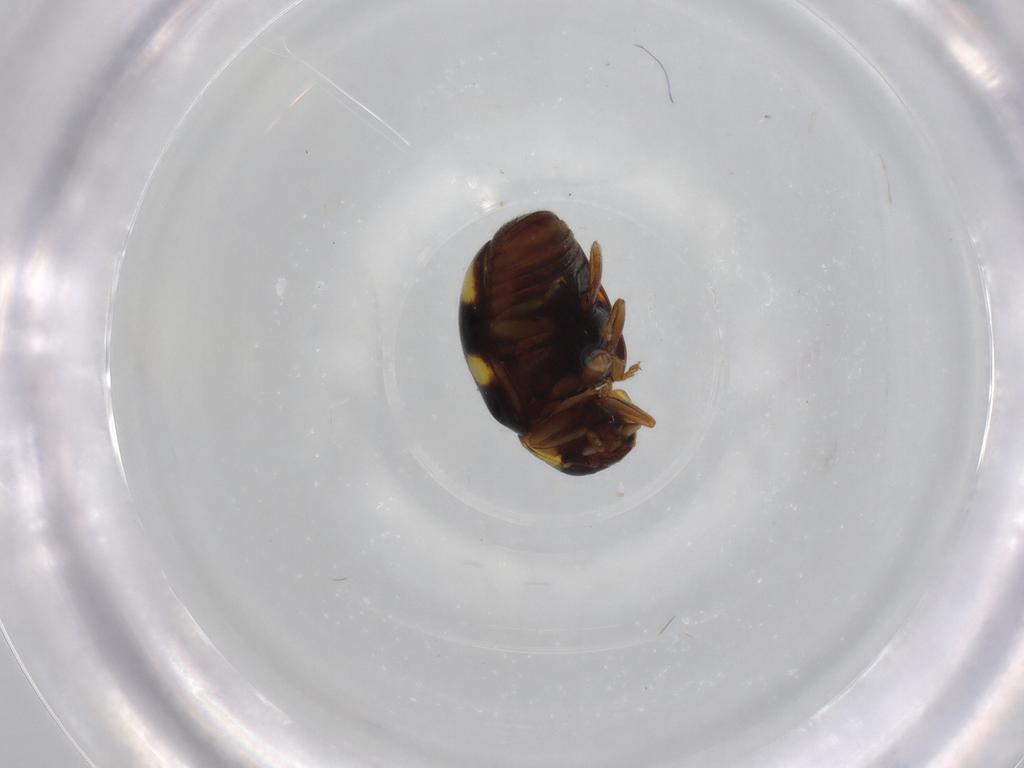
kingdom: Animalia
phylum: Arthropoda
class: Insecta
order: Coleoptera
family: Coccinellidae
